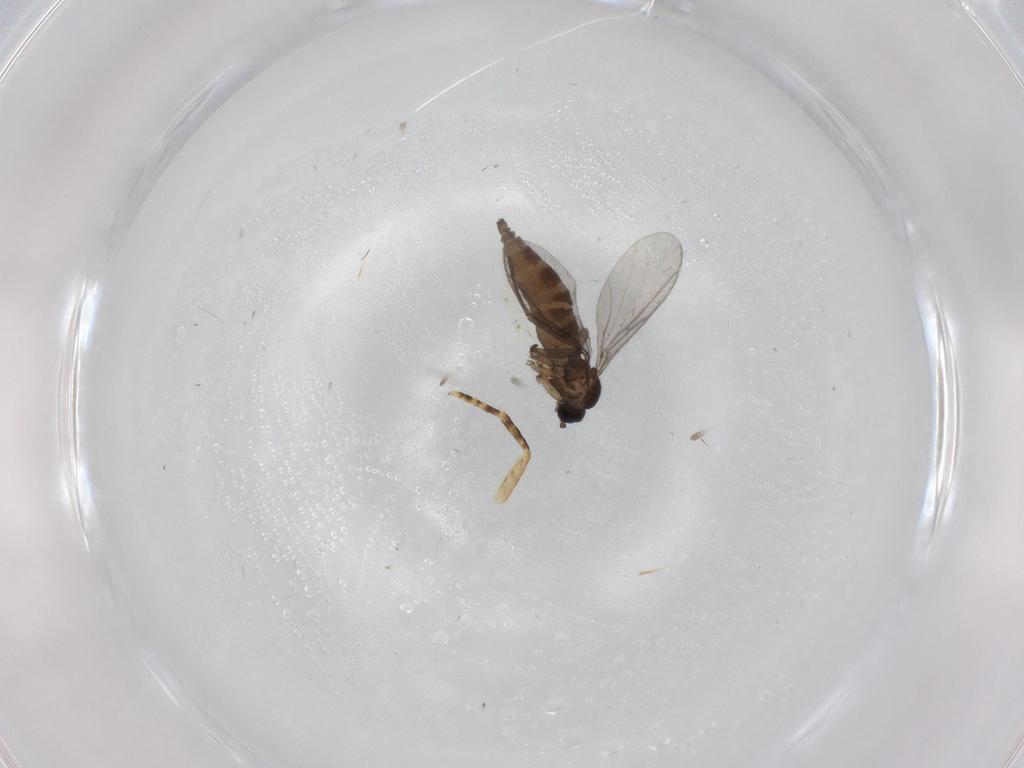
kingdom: Animalia
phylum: Arthropoda
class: Insecta
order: Diptera
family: Sciaridae
